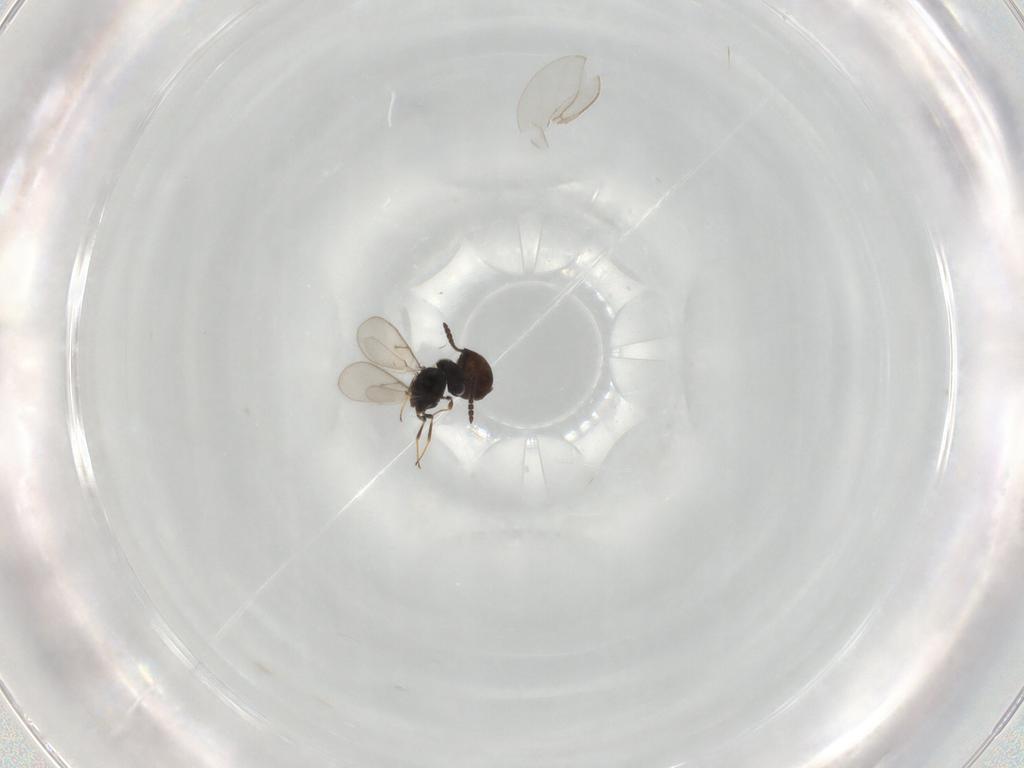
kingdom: Animalia
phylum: Arthropoda
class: Insecta
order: Hymenoptera
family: Scelionidae
